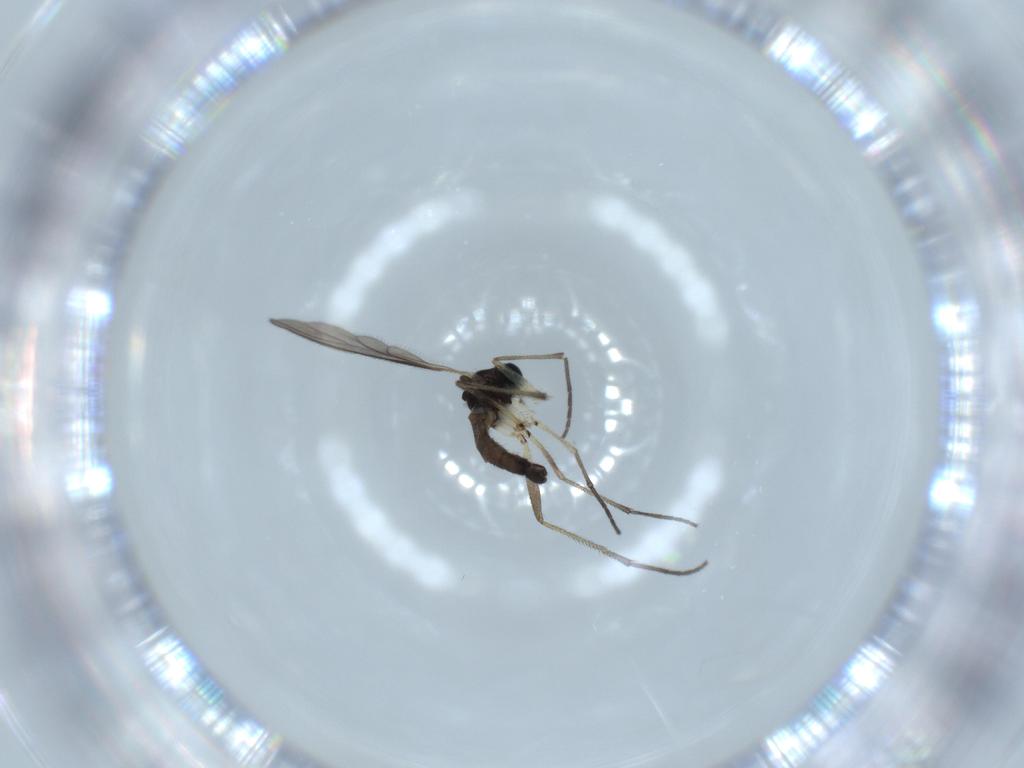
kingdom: Animalia
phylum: Arthropoda
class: Insecta
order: Diptera
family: Sciaridae
